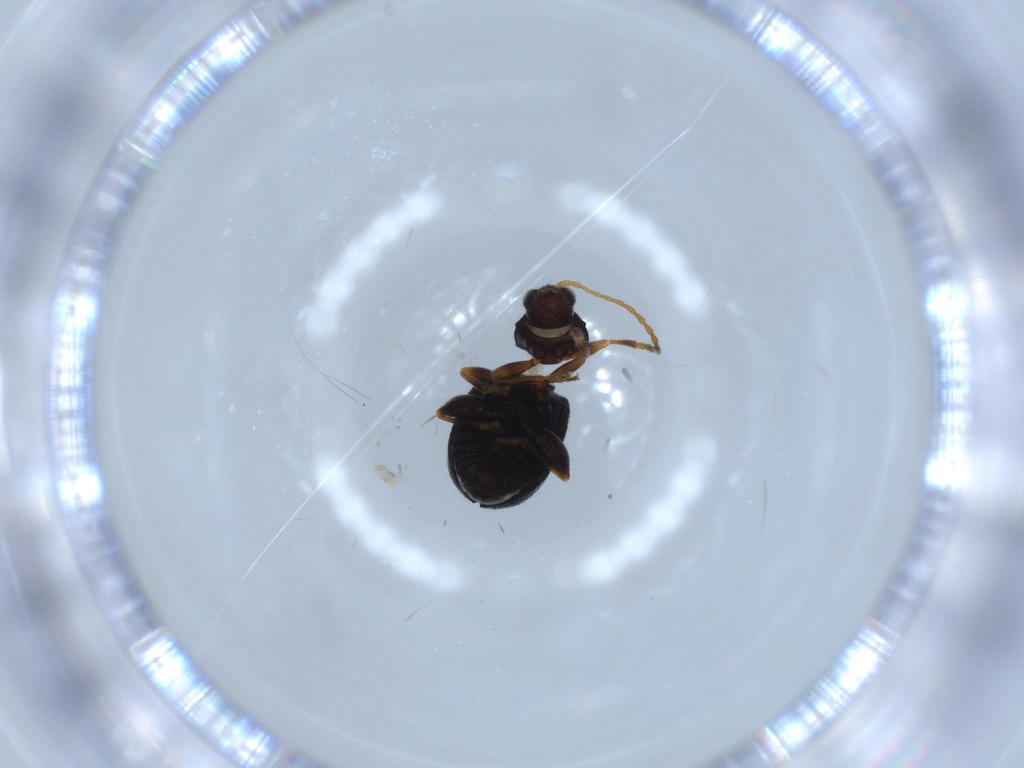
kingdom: Animalia
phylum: Arthropoda
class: Insecta
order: Coleoptera
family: Chrysomelidae
